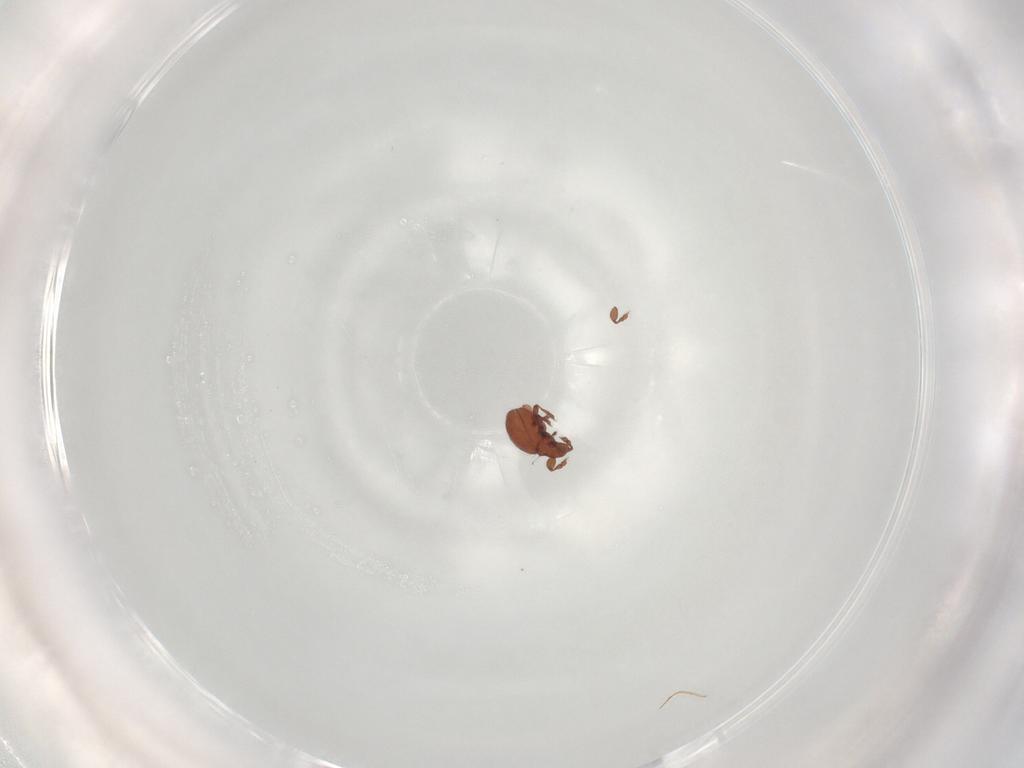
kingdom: Animalia
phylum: Arthropoda
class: Arachnida
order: Sarcoptiformes
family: Eremaeidae
